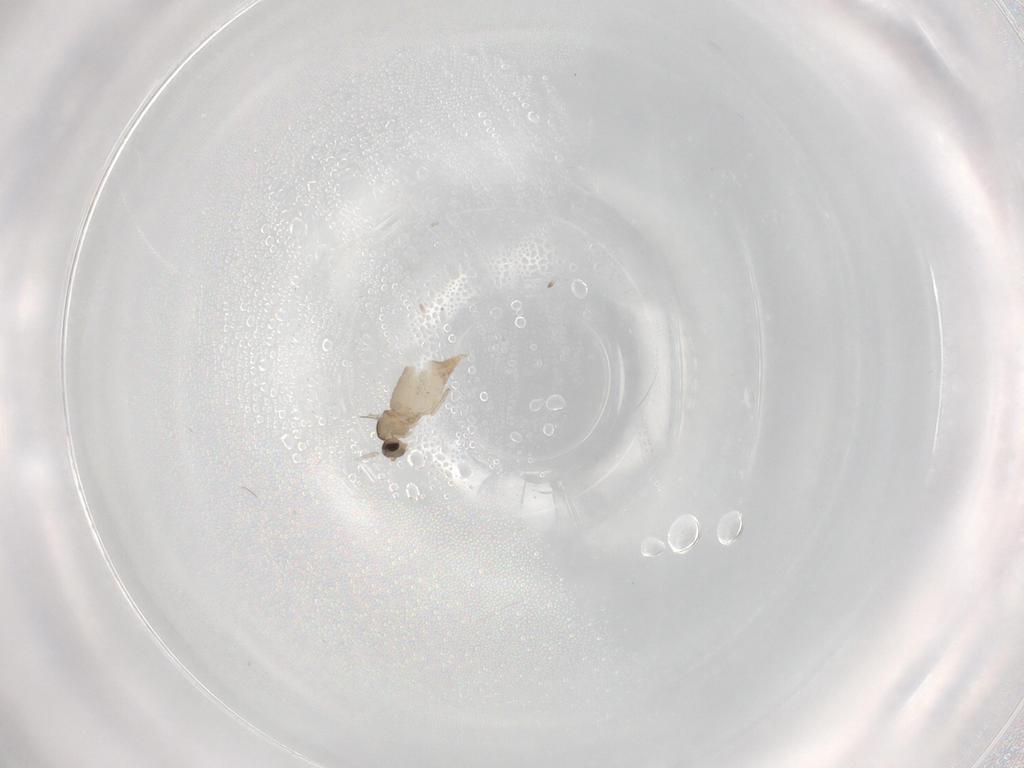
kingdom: Animalia
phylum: Arthropoda
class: Insecta
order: Diptera
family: Cecidomyiidae
